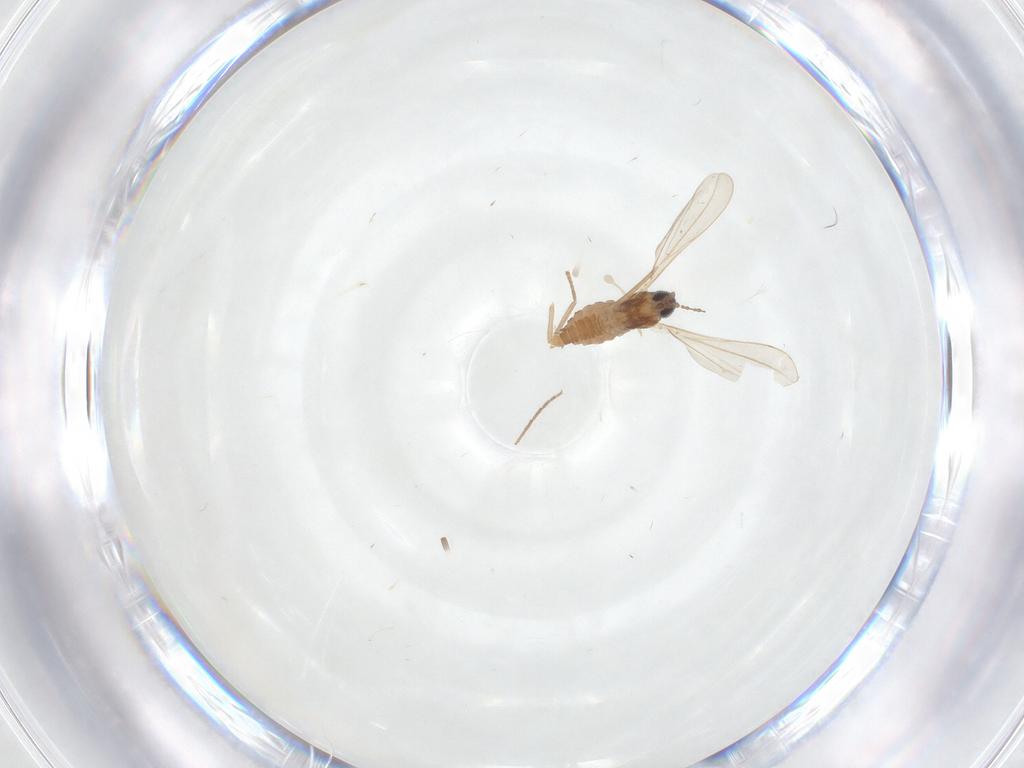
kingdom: Animalia
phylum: Arthropoda
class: Insecta
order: Diptera
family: Cecidomyiidae
